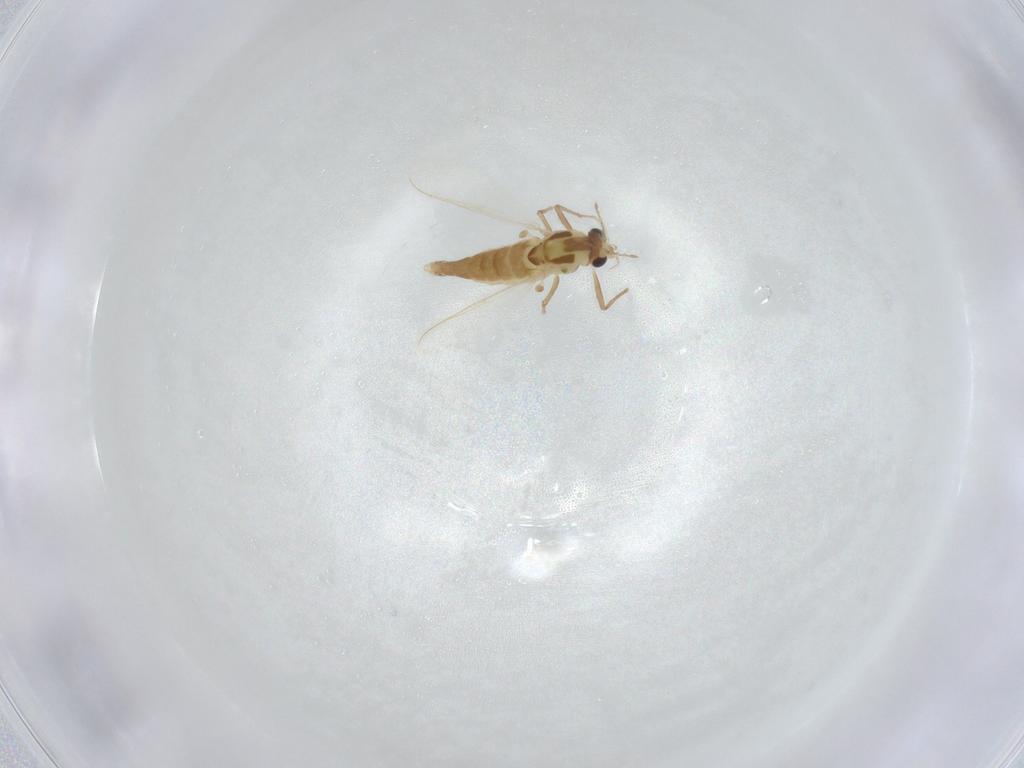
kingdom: Animalia
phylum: Arthropoda
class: Insecta
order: Diptera
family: Chironomidae
